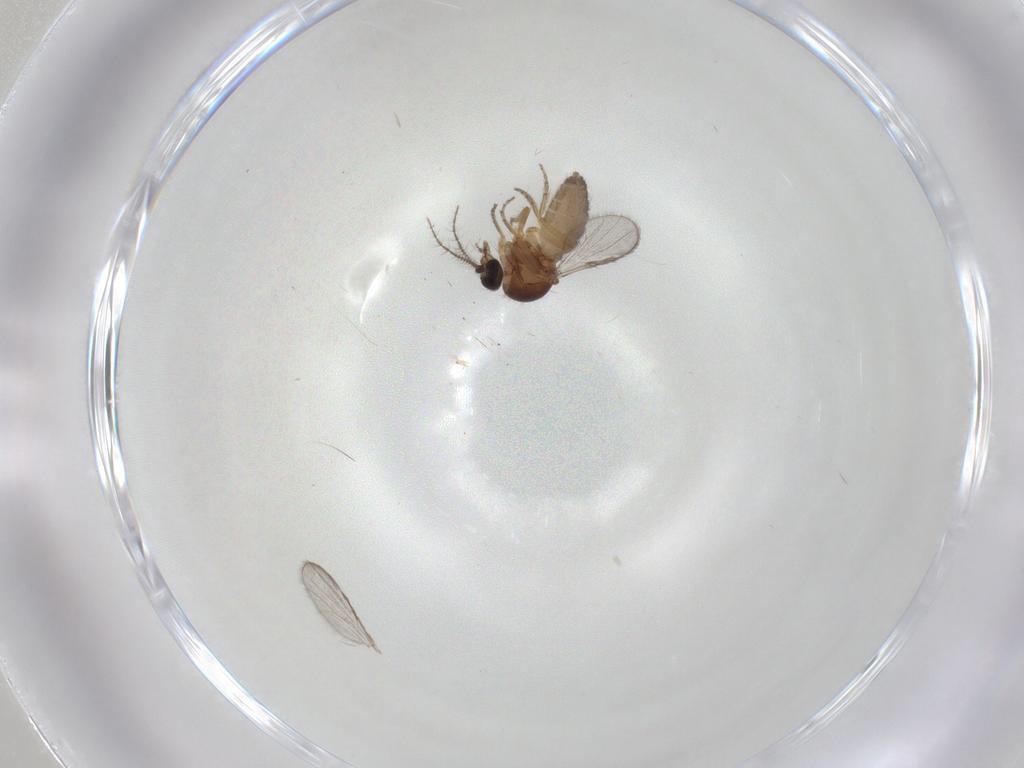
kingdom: Animalia
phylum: Arthropoda
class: Insecta
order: Diptera
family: Ceratopogonidae
